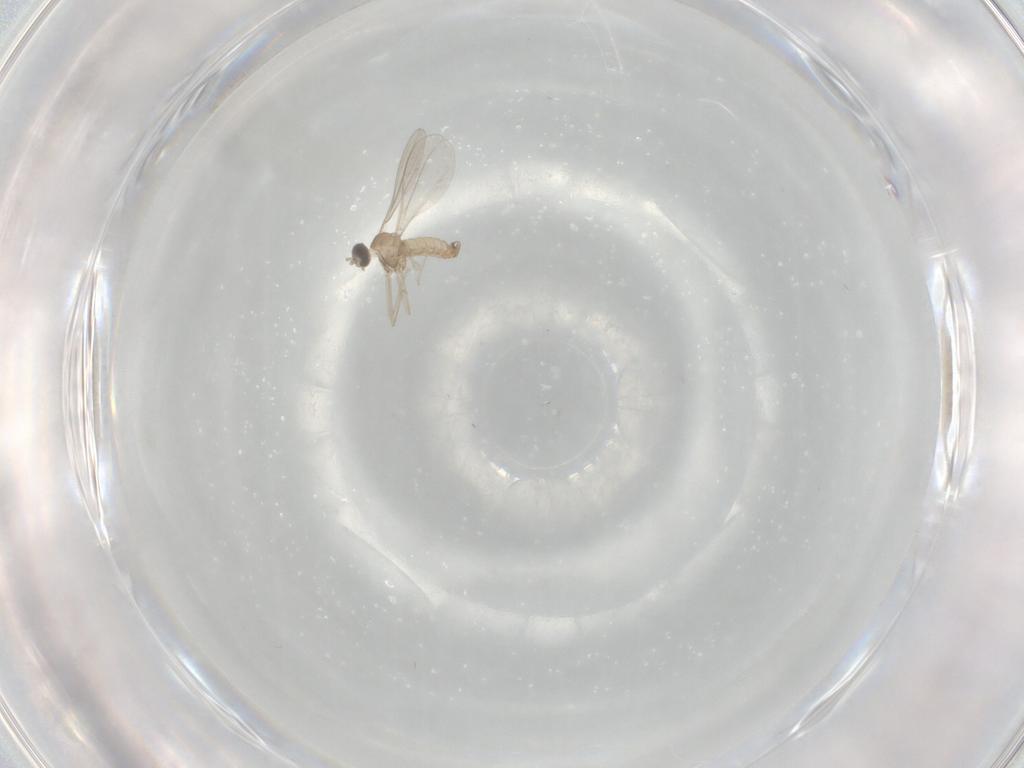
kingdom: Animalia
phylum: Arthropoda
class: Insecta
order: Diptera
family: Cecidomyiidae
